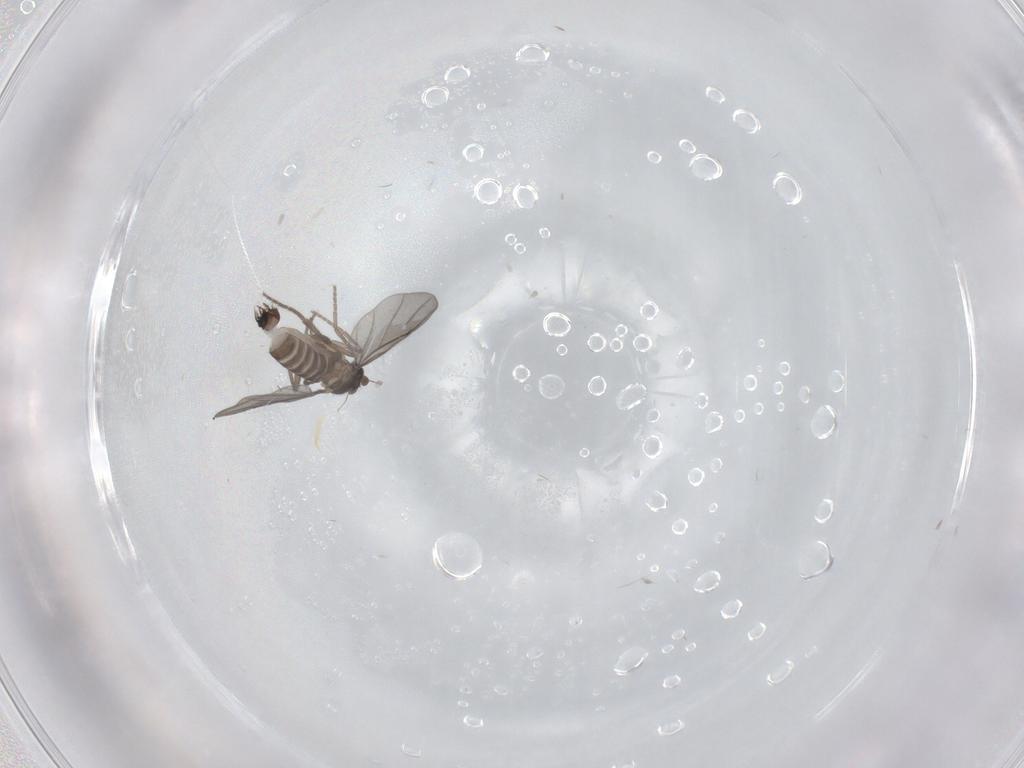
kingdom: Animalia
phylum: Arthropoda
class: Insecta
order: Diptera
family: Phoridae
